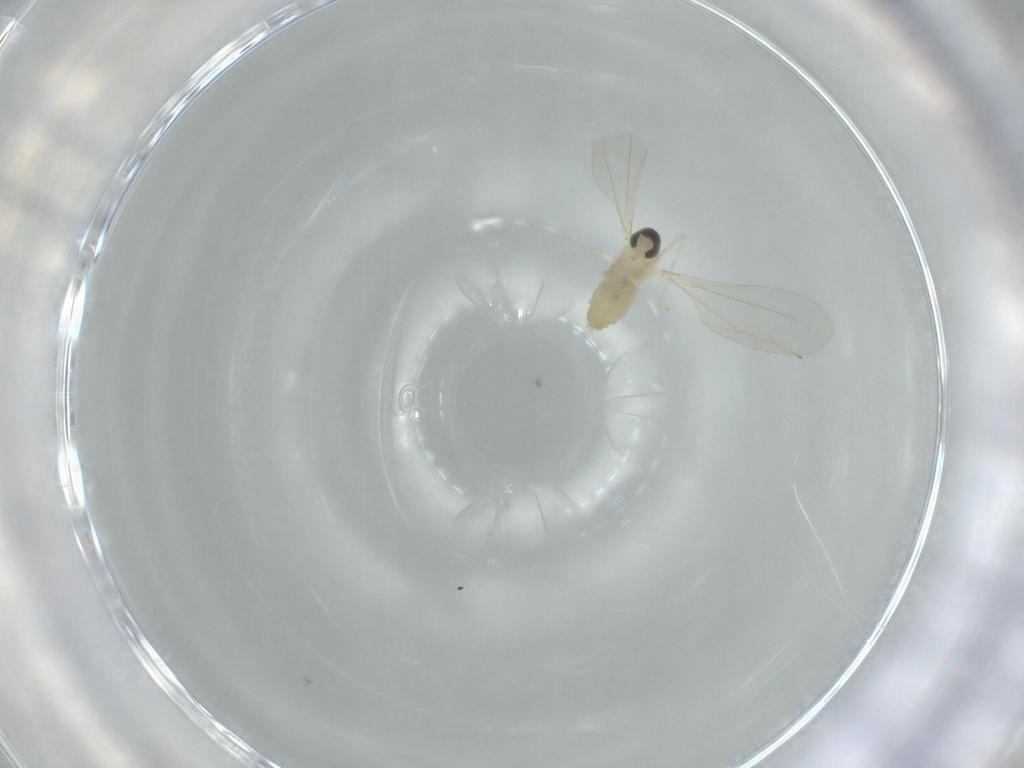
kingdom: Animalia
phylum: Arthropoda
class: Insecta
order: Diptera
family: Cecidomyiidae
